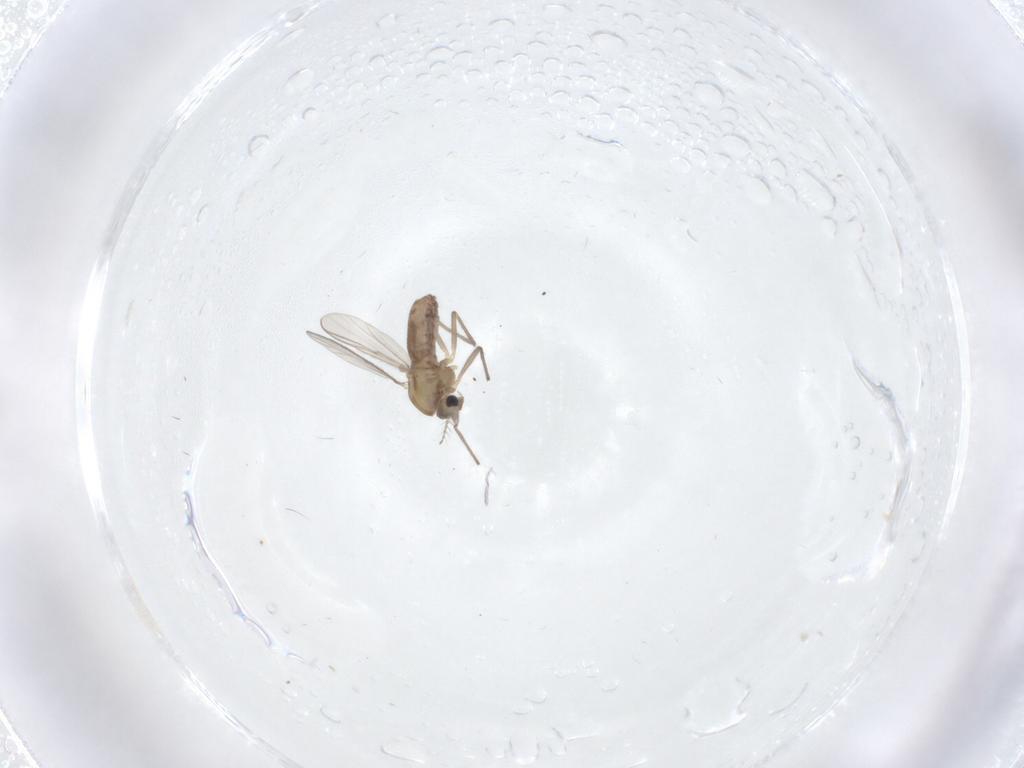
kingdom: Animalia
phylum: Arthropoda
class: Insecta
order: Diptera
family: Chironomidae
